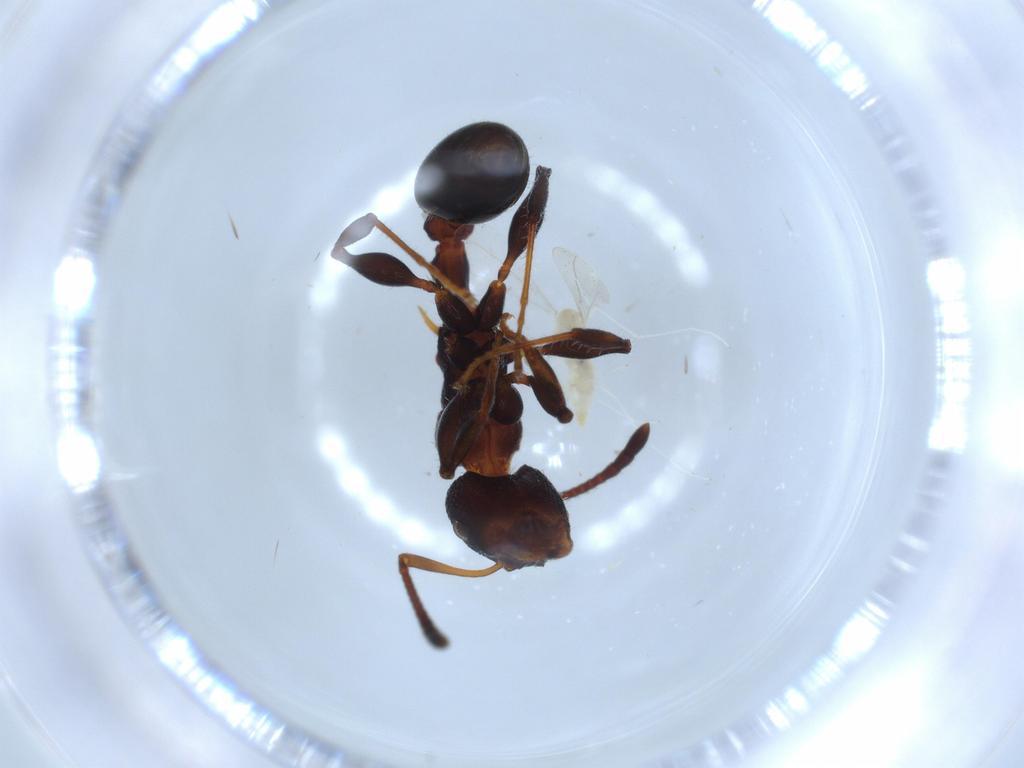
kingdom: Animalia
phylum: Arthropoda
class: Insecta
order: Diptera
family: Cecidomyiidae
